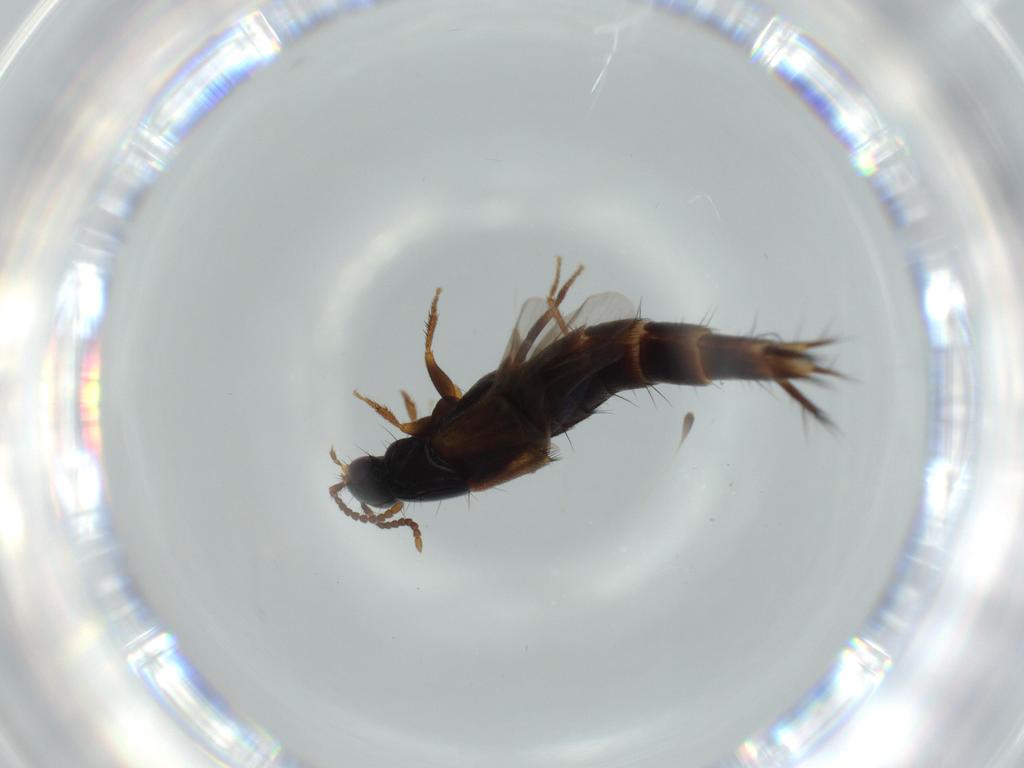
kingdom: Animalia
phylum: Arthropoda
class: Insecta
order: Coleoptera
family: Staphylinidae
